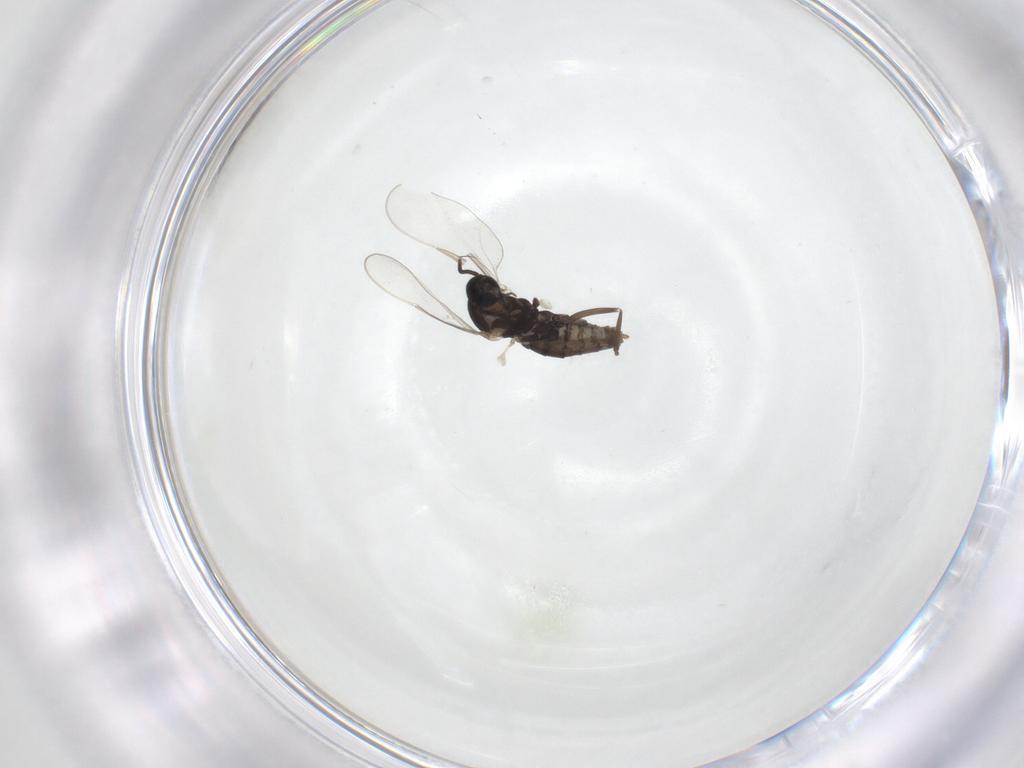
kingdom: Animalia
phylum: Arthropoda
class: Insecta
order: Diptera
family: Cecidomyiidae
